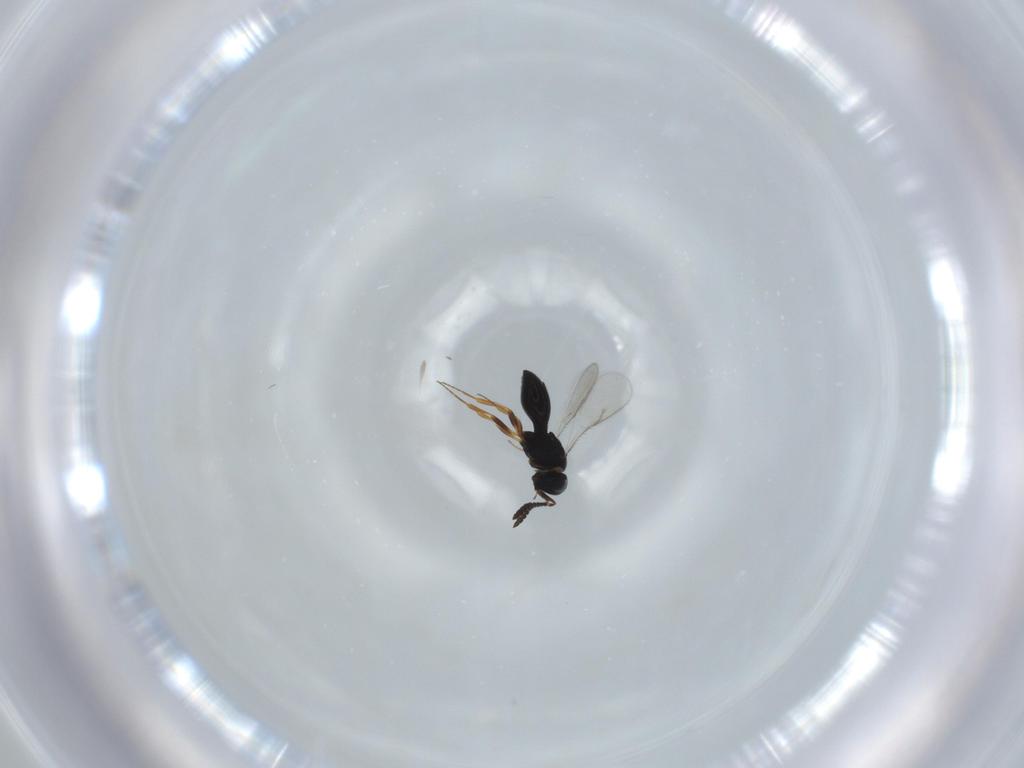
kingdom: Animalia
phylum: Arthropoda
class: Insecta
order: Hymenoptera
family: Scelionidae
